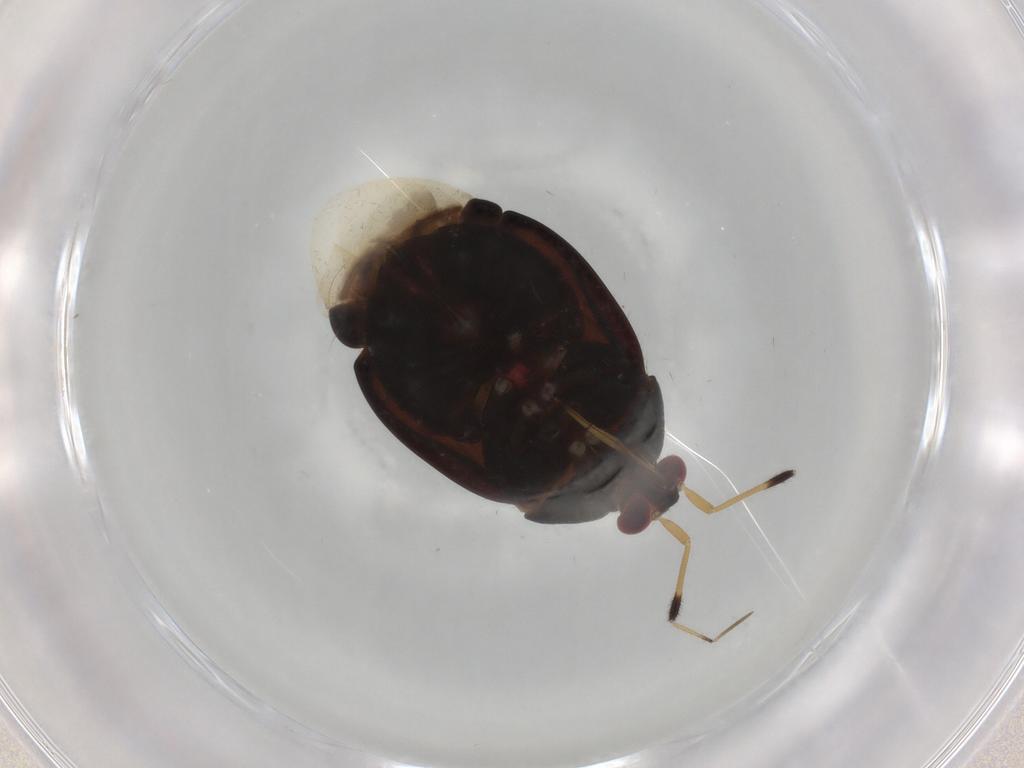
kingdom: Animalia
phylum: Arthropoda
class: Insecta
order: Hemiptera
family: Miridae
